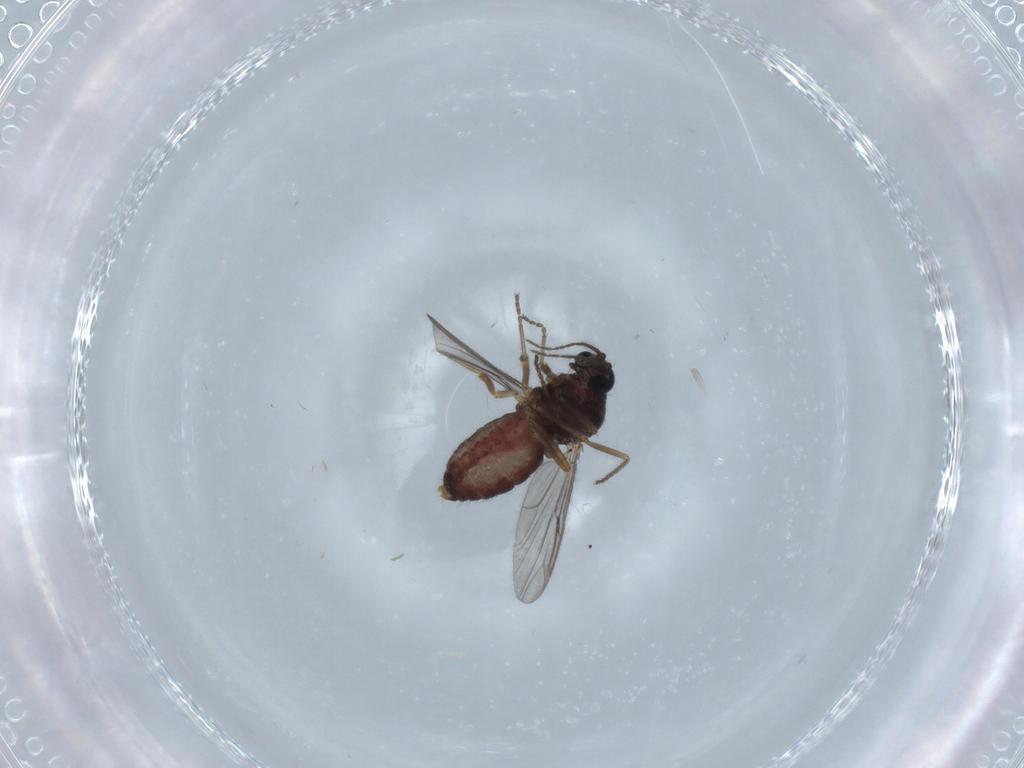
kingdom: Animalia
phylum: Arthropoda
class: Insecta
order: Diptera
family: Ceratopogonidae
